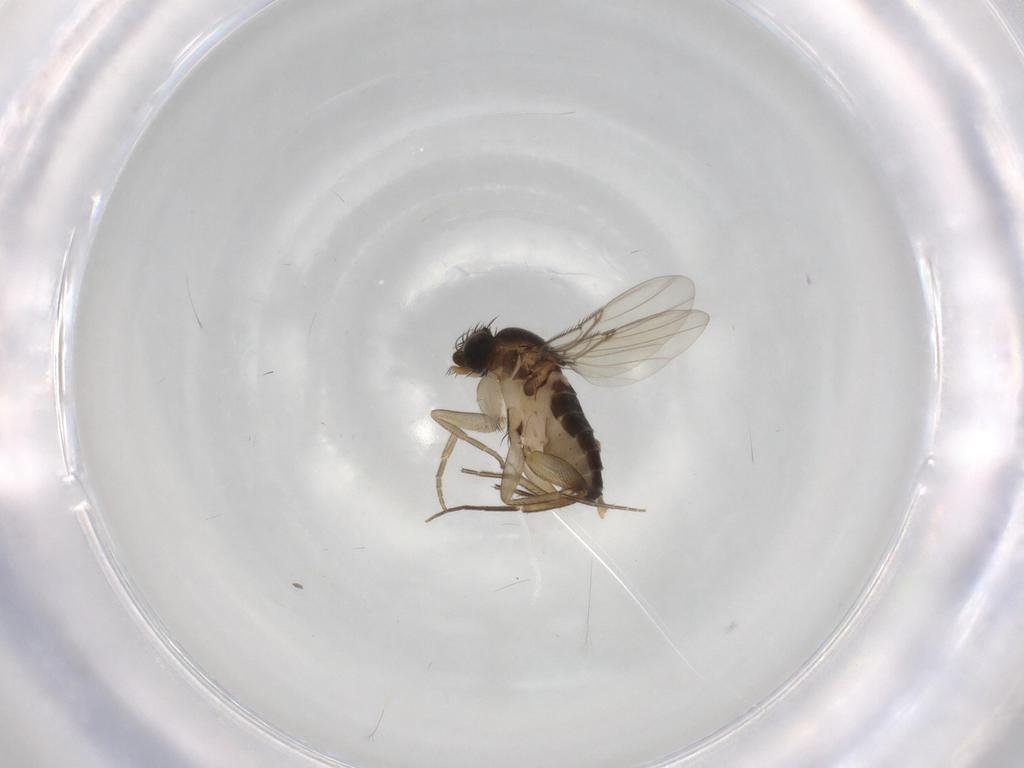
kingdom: Animalia
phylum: Arthropoda
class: Insecta
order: Diptera
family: Phoridae
